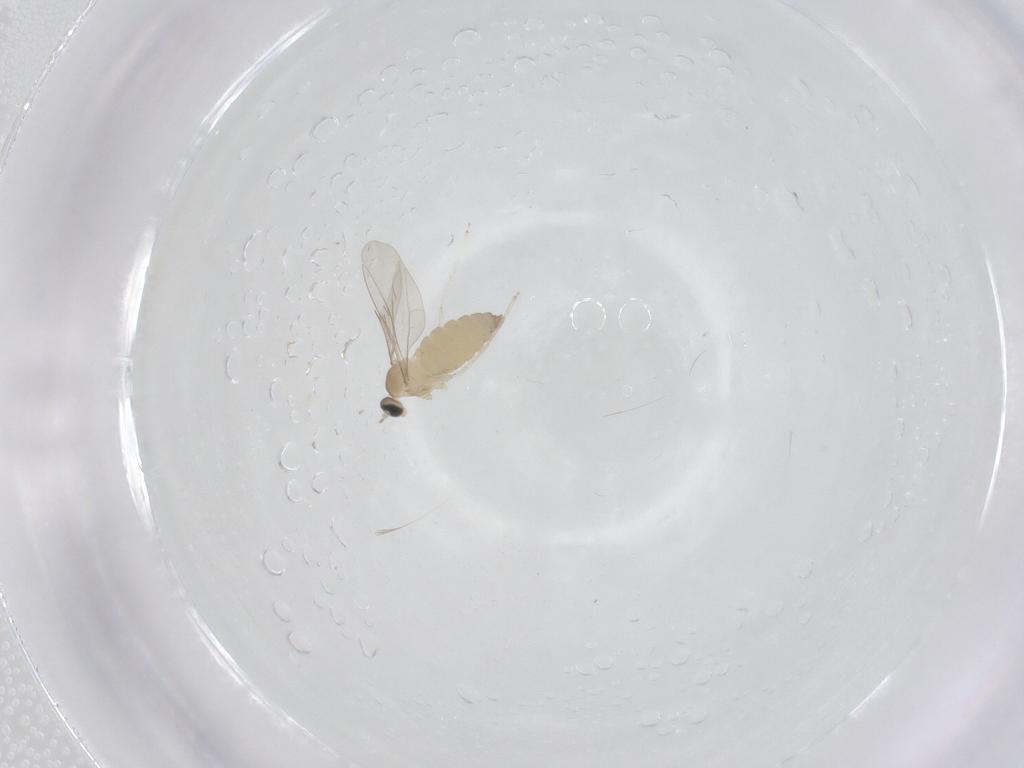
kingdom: Animalia
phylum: Arthropoda
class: Insecta
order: Diptera
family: Cecidomyiidae
